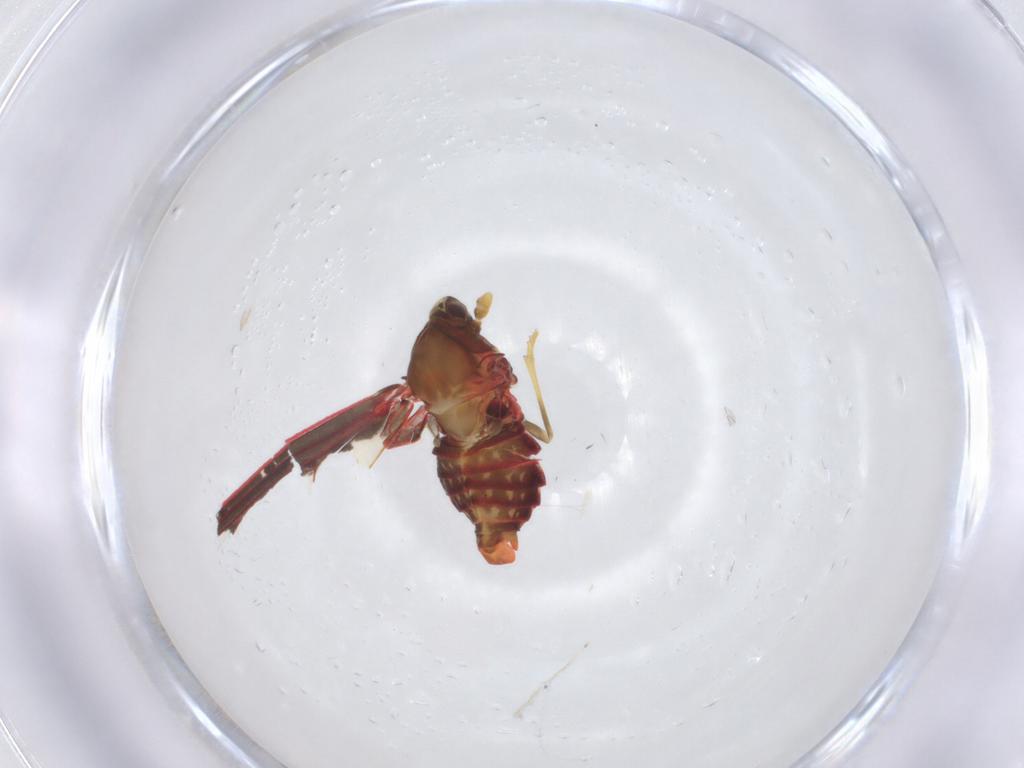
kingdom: Animalia
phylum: Arthropoda
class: Insecta
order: Hemiptera
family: Derbidae
